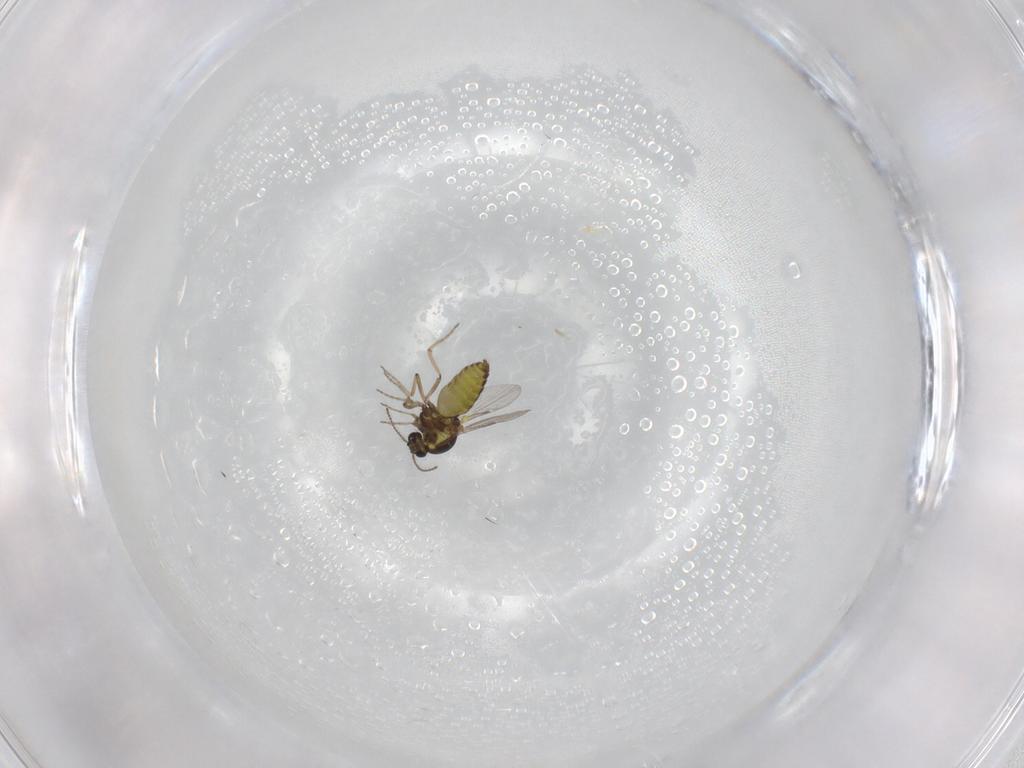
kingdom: Animalia
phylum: Arthropoda
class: Insecta
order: Diptera
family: Ceratopogonidae
